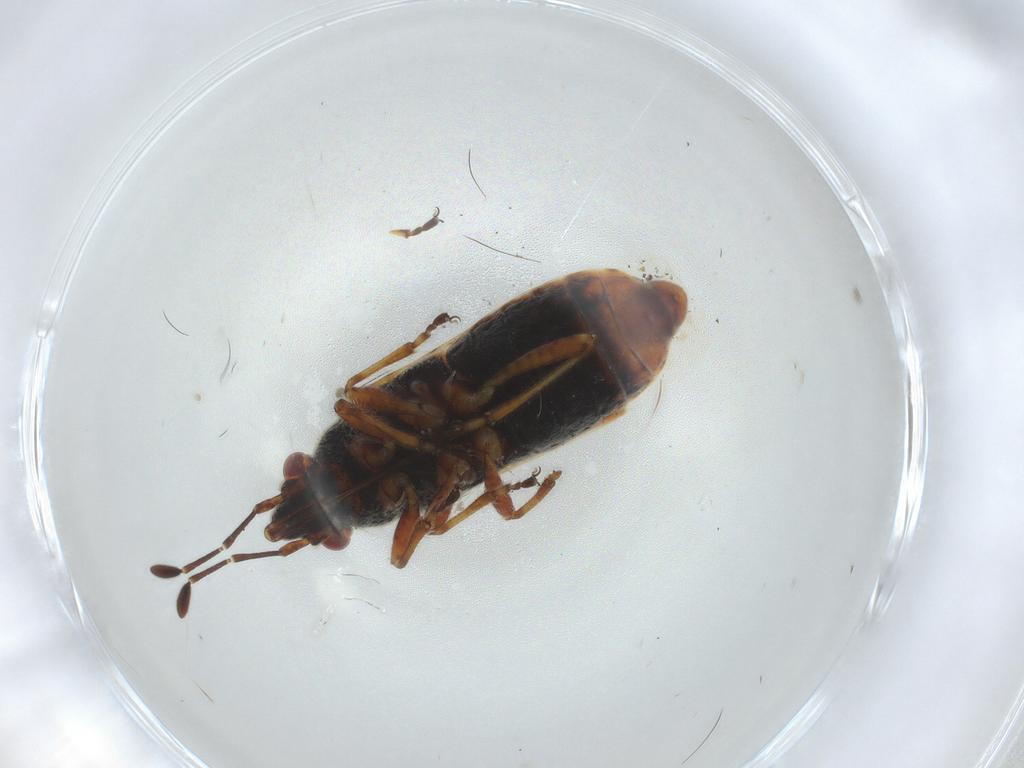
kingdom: Animalia
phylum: Arthropoda
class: Insecta
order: Hemiptera
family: Lygaeidae
